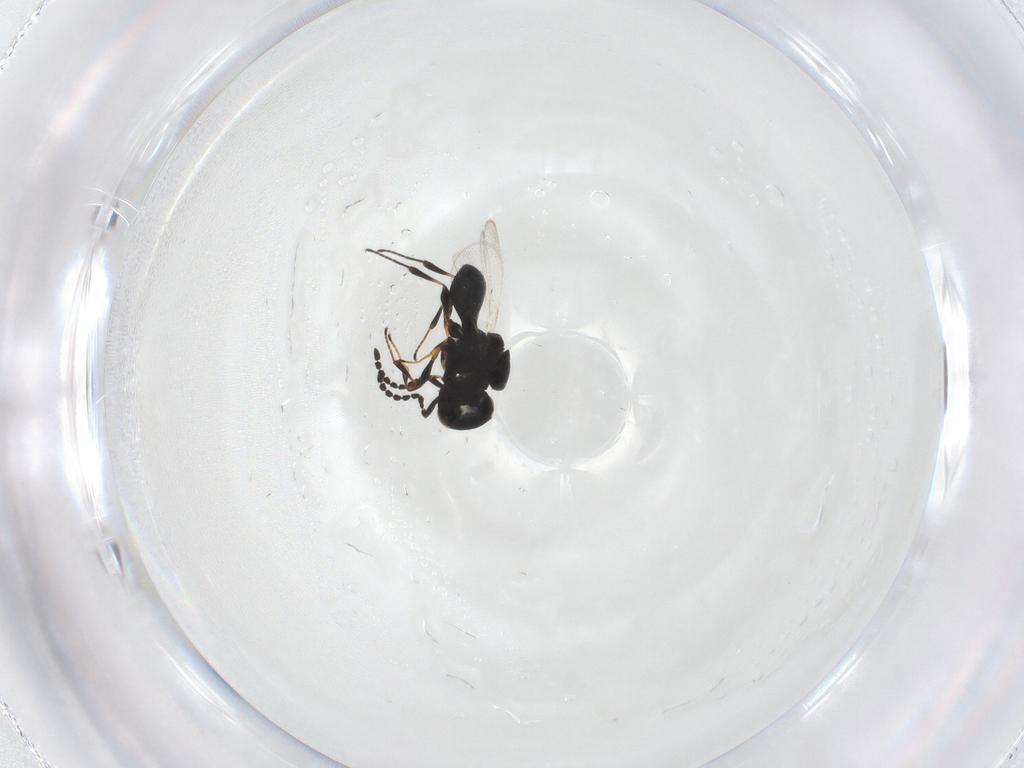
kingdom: Animalia
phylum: Arthropoda
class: Insecta
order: Hymenoptera
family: Platygastridae
